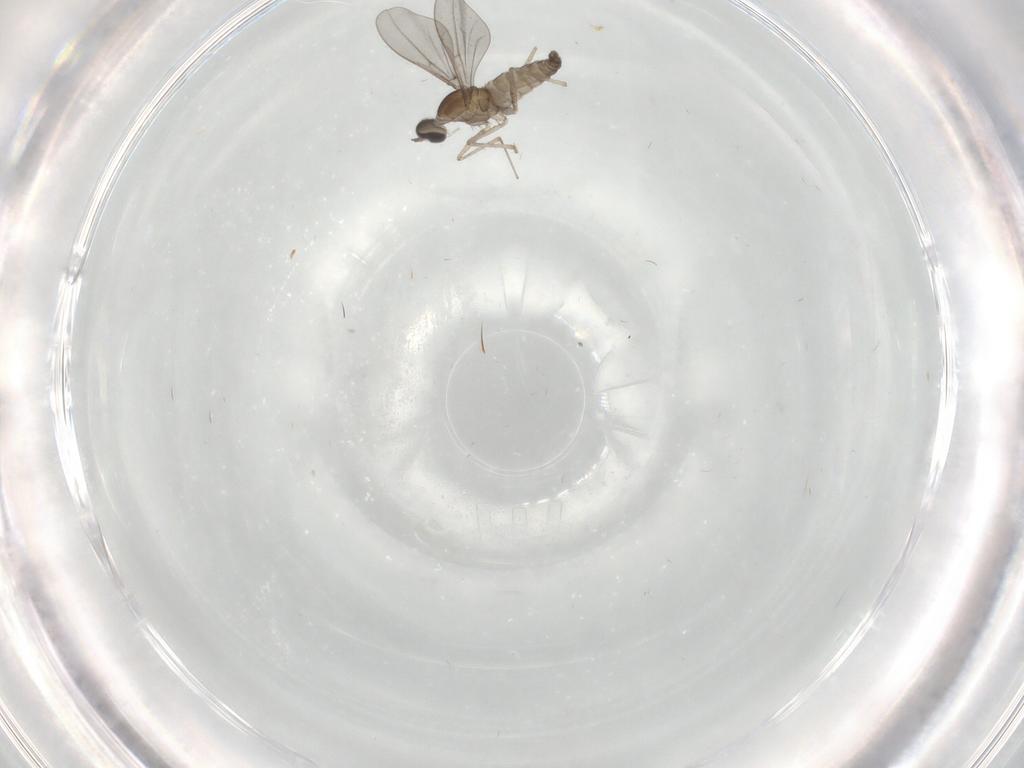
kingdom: Animalia
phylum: Arthropoda
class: Insecta
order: Diptera
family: Cecidomyiidae
